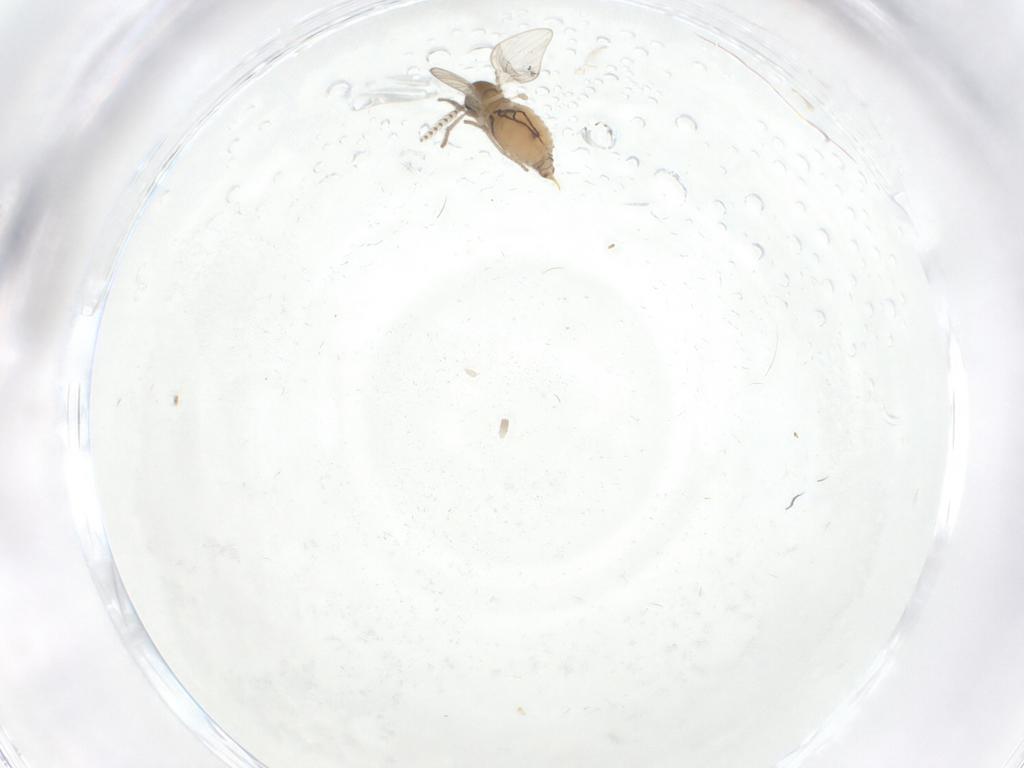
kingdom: Animalia
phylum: Arthropoda
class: Insecta
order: Diptera
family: Psychodidae
